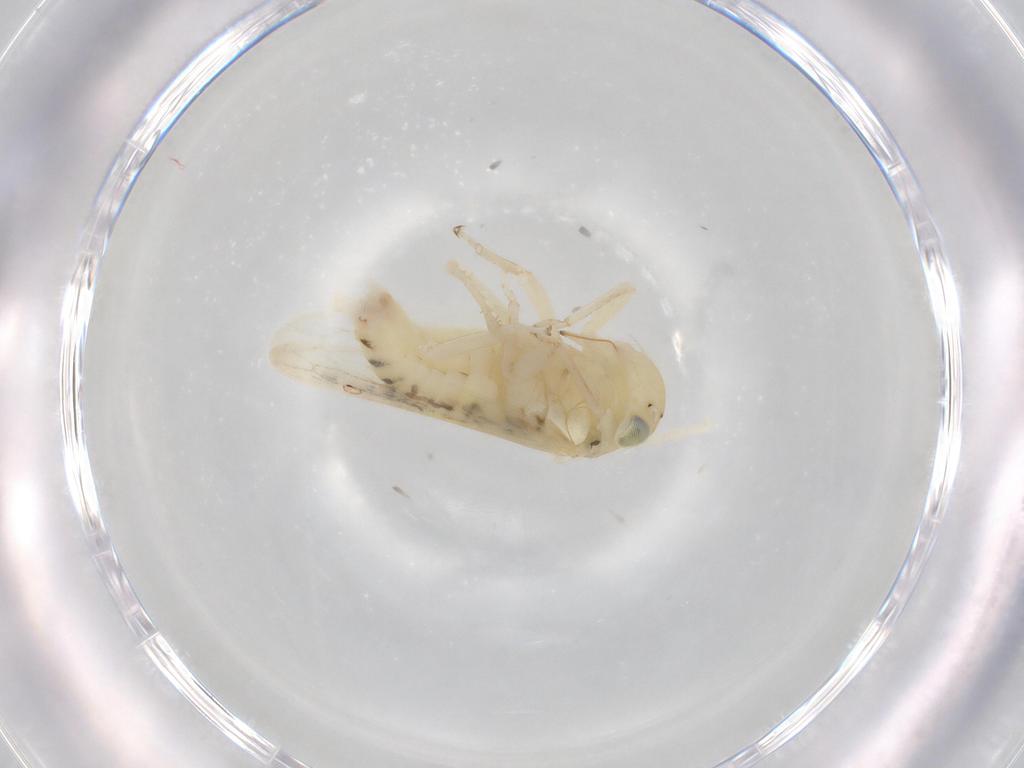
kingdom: Animalia
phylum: Arthropoda
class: Insecta
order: Hemiptera
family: Cicadellidae
